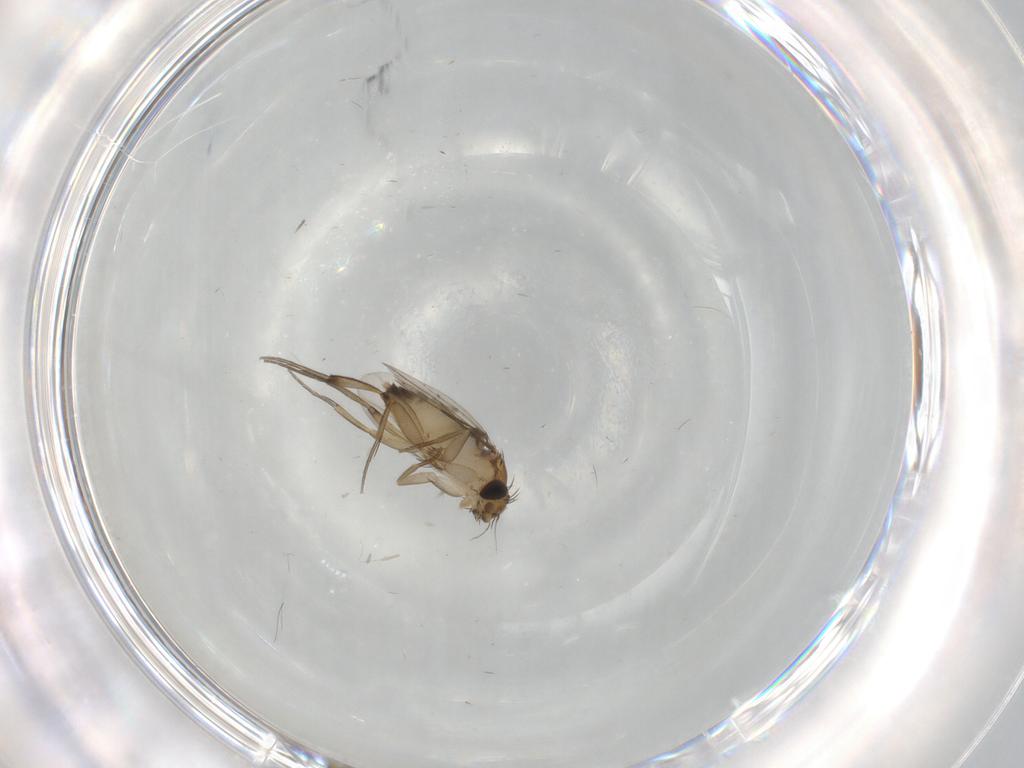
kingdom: Animalia
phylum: Arthropoda
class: Insecta
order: Diptera
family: Phoridae
